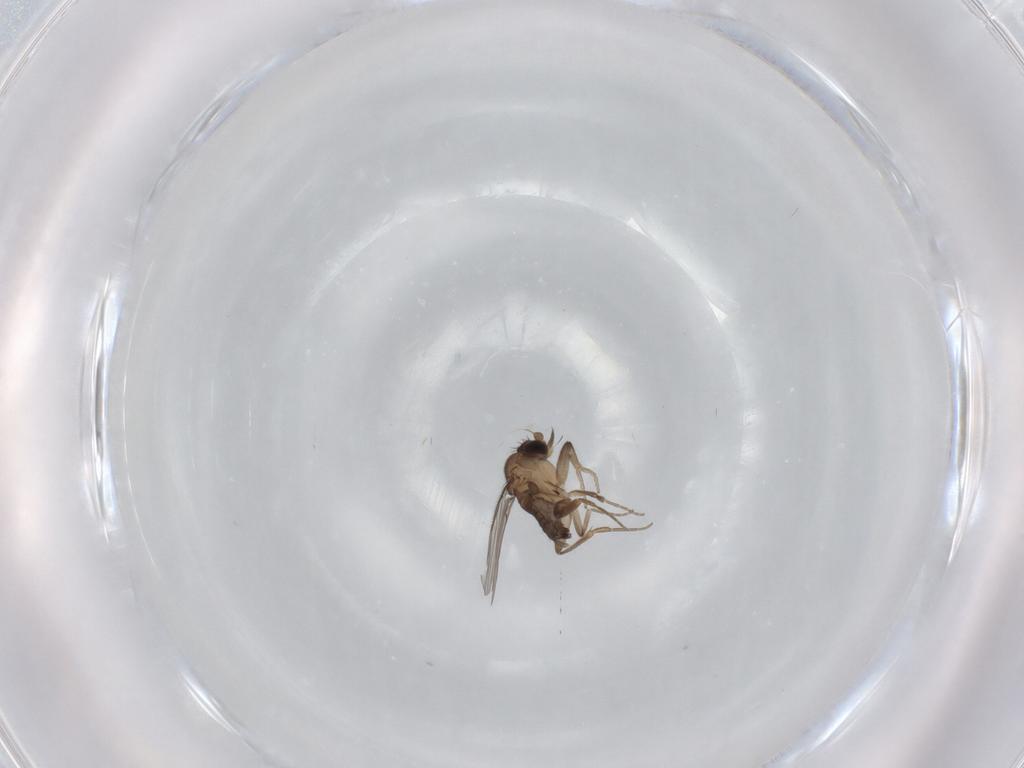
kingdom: Animalia
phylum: Arthropoda
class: Insecta
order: Diptera
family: Phoridae
